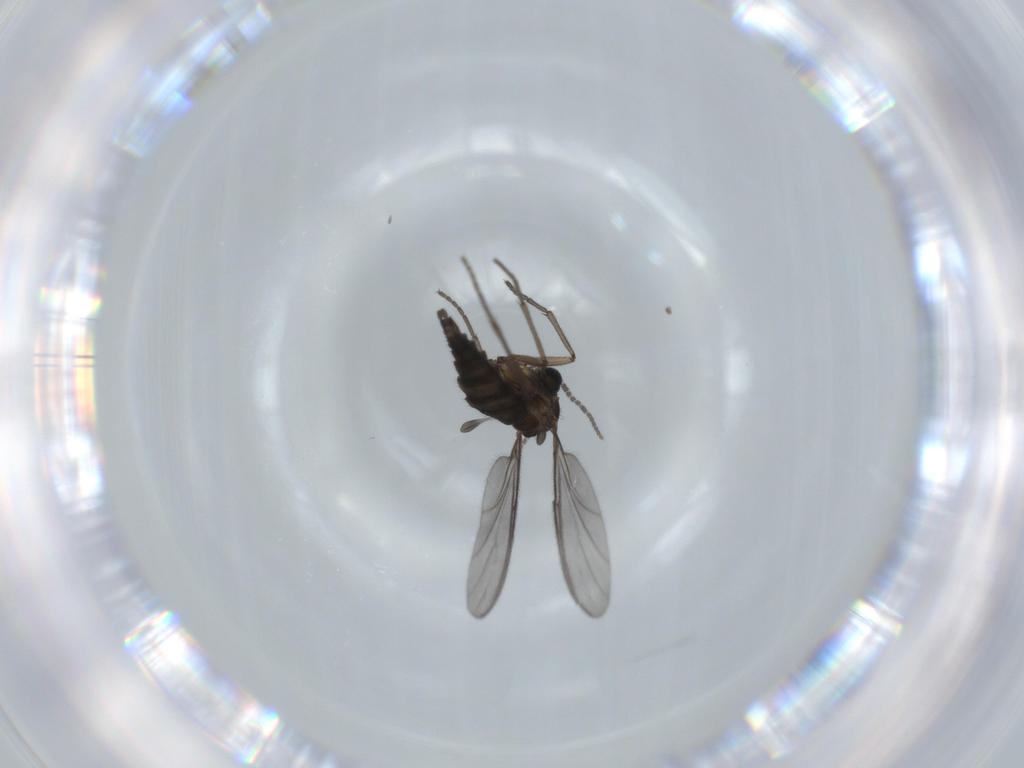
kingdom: Animalia
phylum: Arthropoda
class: Insecta
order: Diptera
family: Sciaridae
